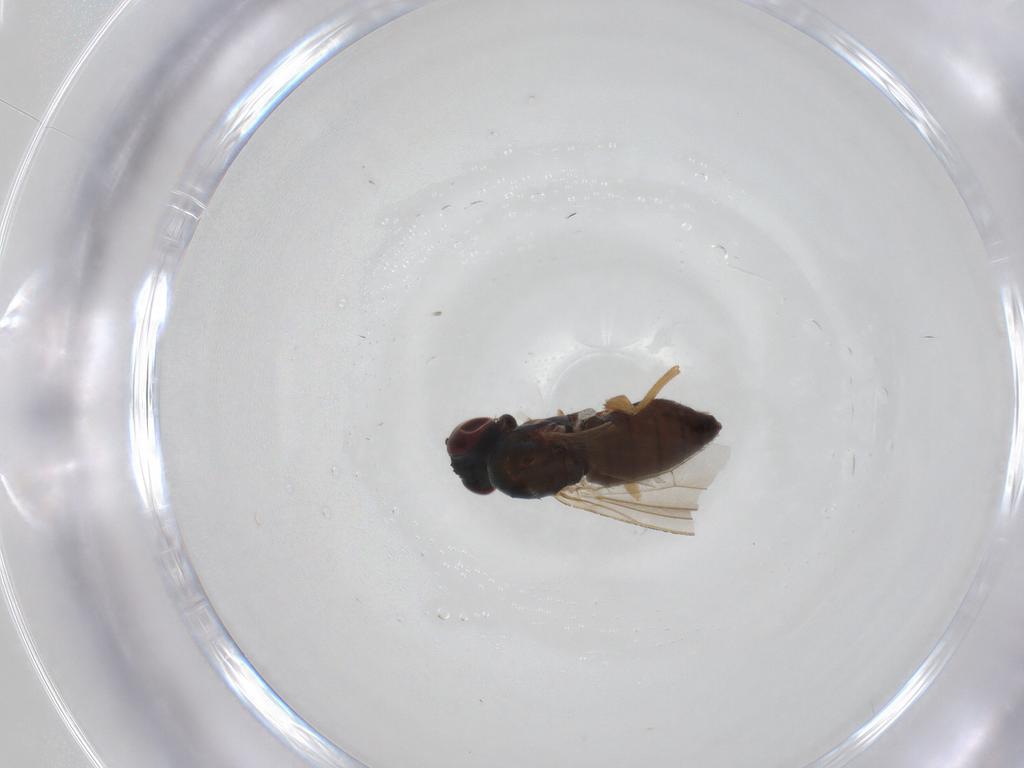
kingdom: Animalia
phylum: Arthropoda
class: Insecta
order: Diptera
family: Dolichopodidae
